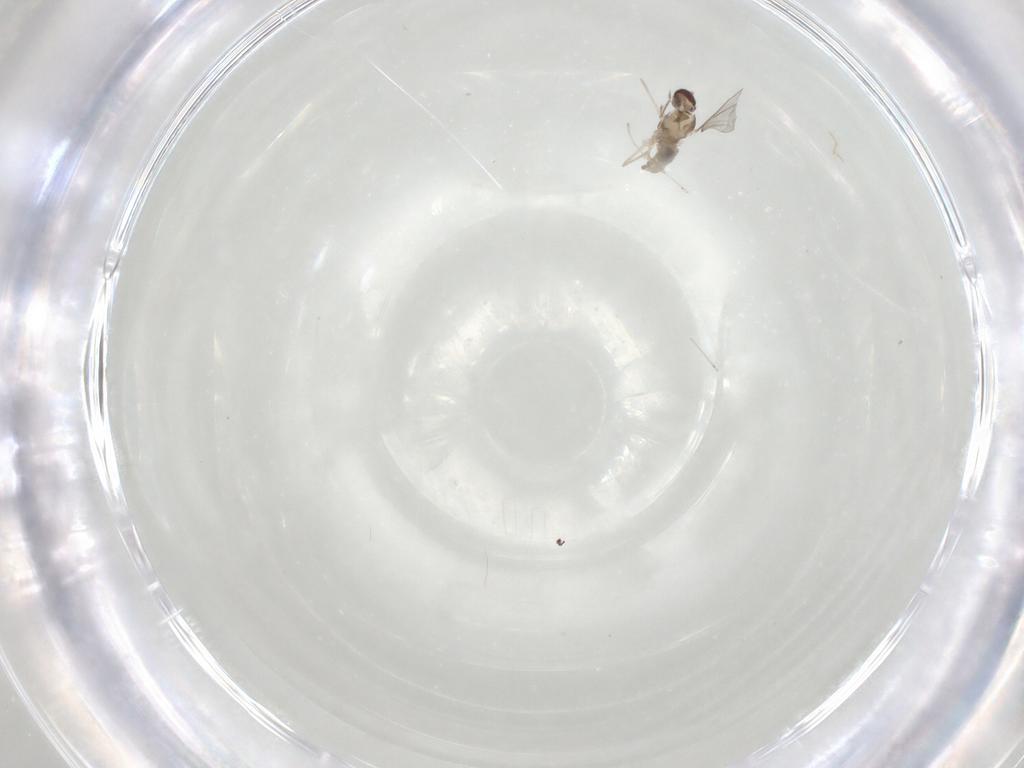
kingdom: Animalia
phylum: Arthropoda
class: Insecta
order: Diptera
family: Cecidomyiidae
